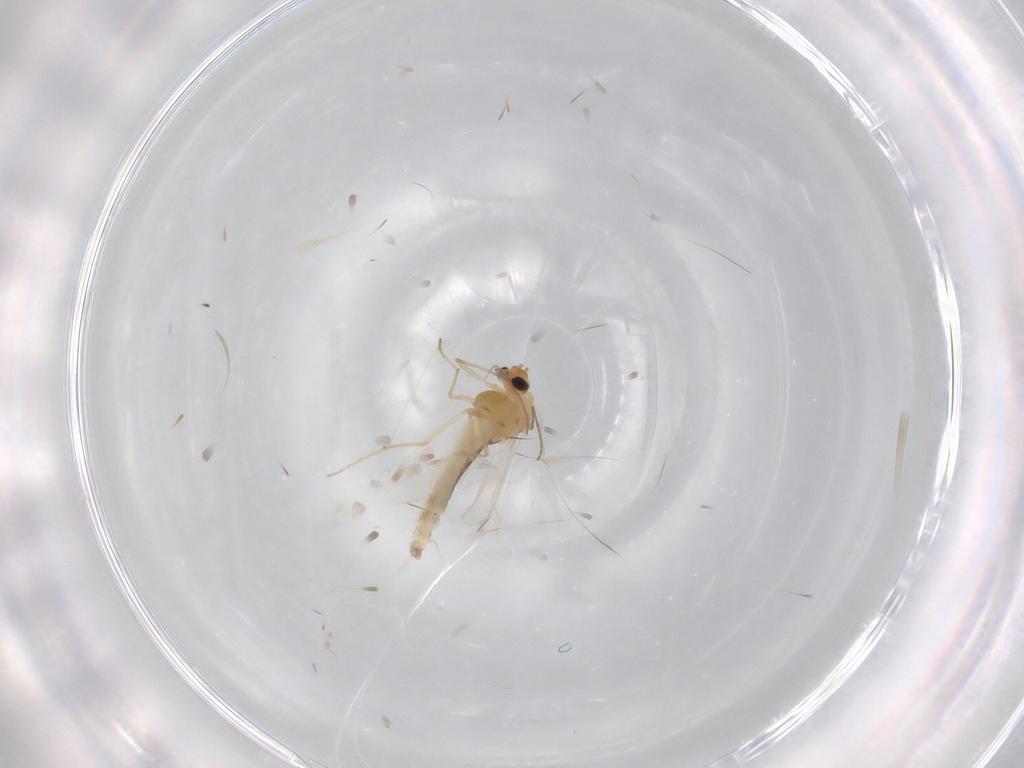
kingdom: Animalia
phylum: Arthropoda
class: Insecta
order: Diptera
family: Chironomidae
